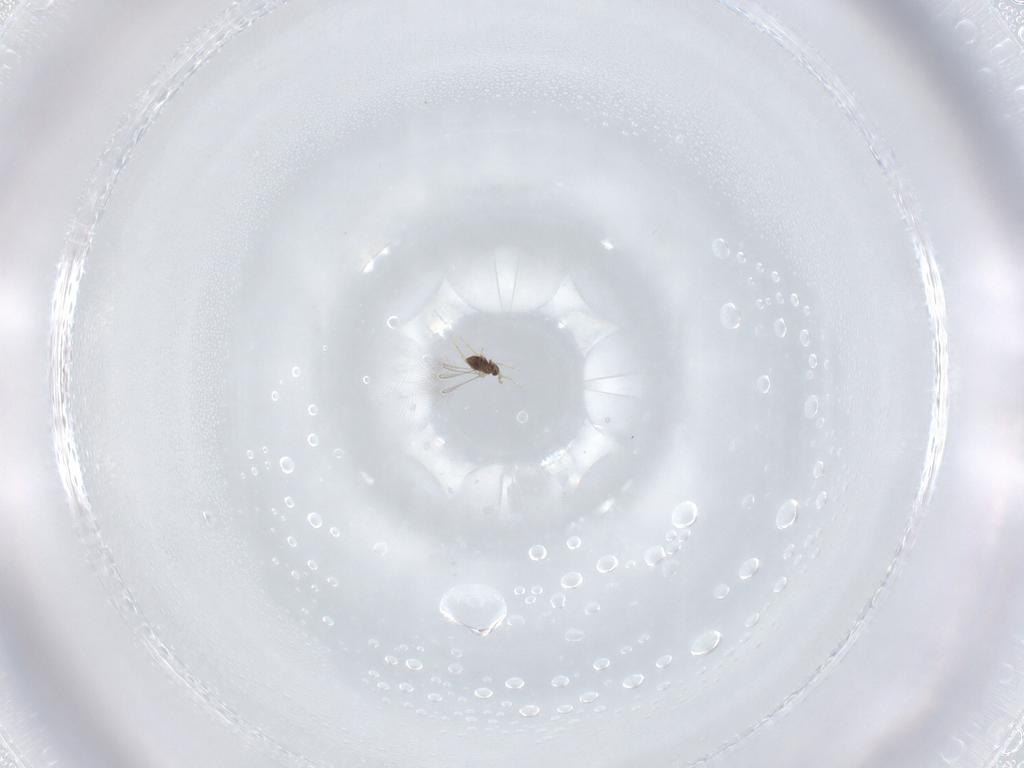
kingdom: Animalia
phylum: Arthropoda
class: Insecta
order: Hymenoptera
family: Mymaridae
